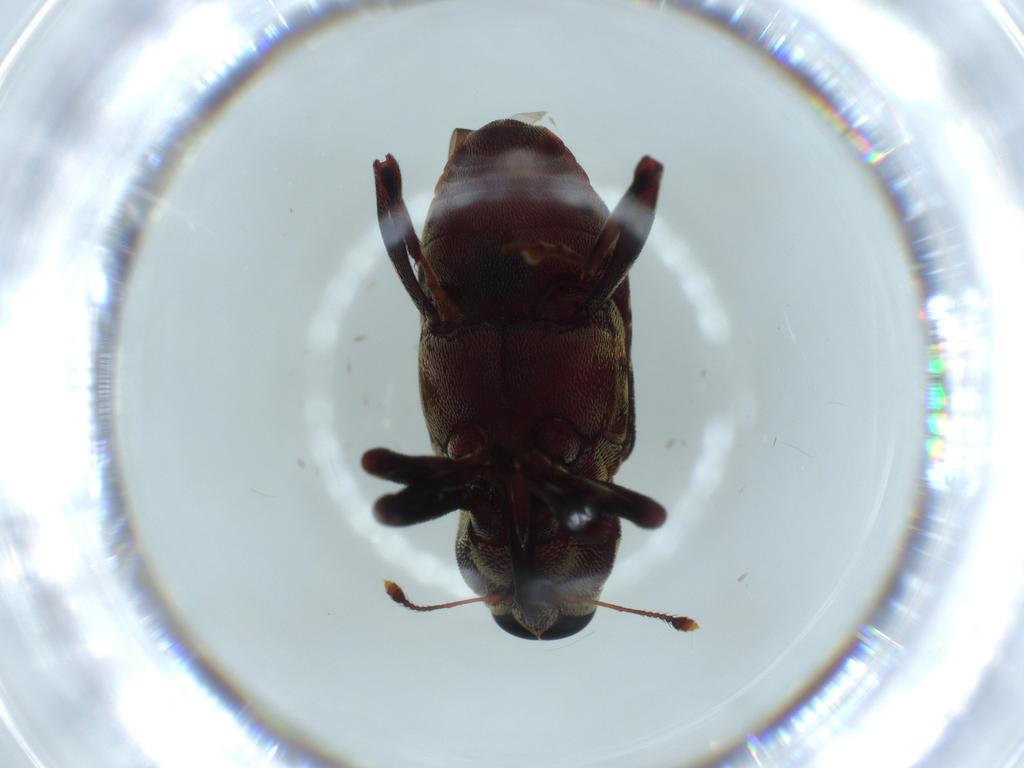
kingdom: Animalia
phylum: Arthropoda
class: Insecta
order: Coleoptera
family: Curculionidae
